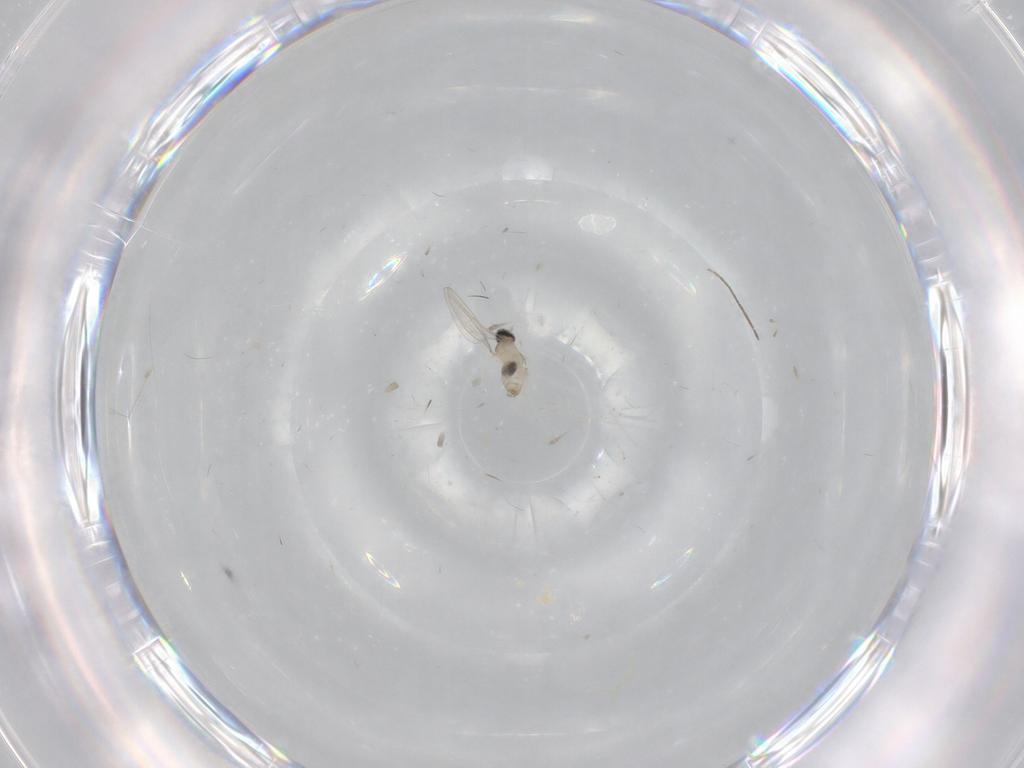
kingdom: Animalia
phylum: Arthropoda
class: Insecta
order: Diptera
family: Cecidomyiidae
